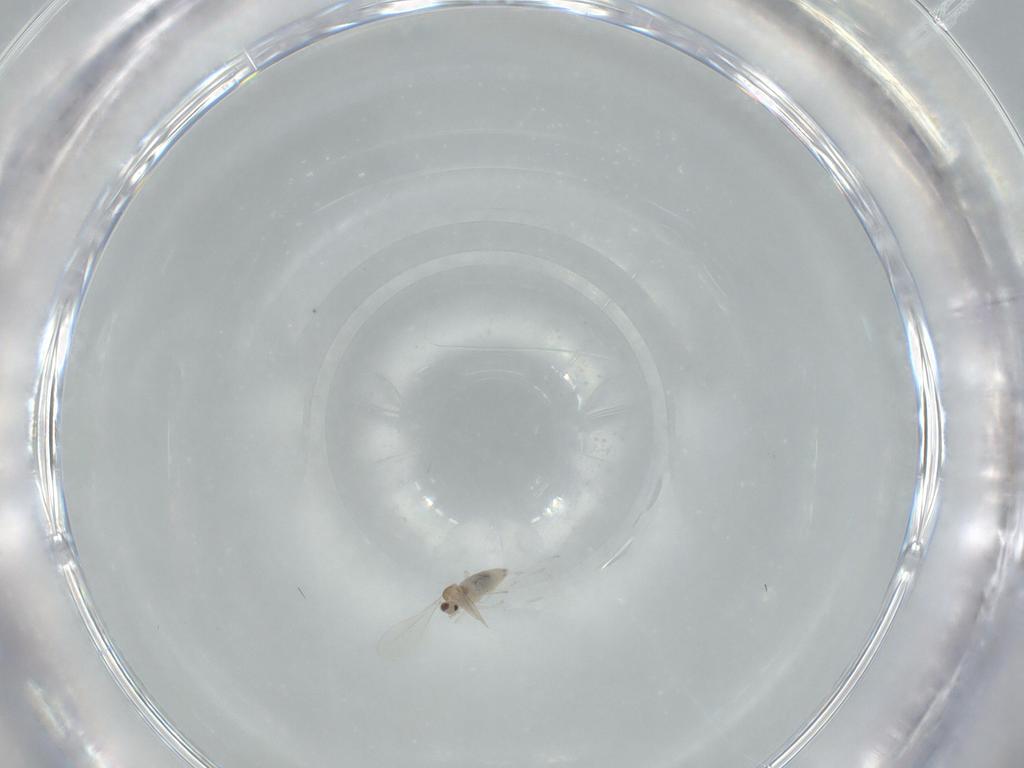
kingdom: Animalia
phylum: Arthropoda
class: Insecta
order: Diptera
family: Cecidomyiidae
